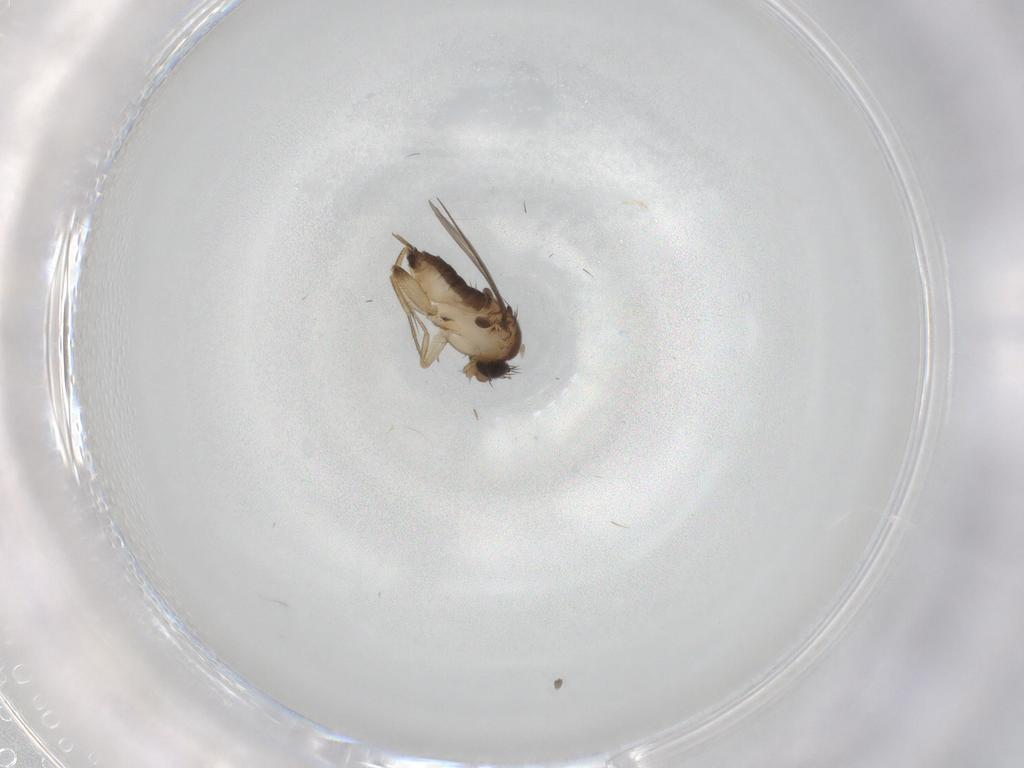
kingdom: Animalia
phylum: Arthropoda
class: Insecta
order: Diptera
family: Phoridae
